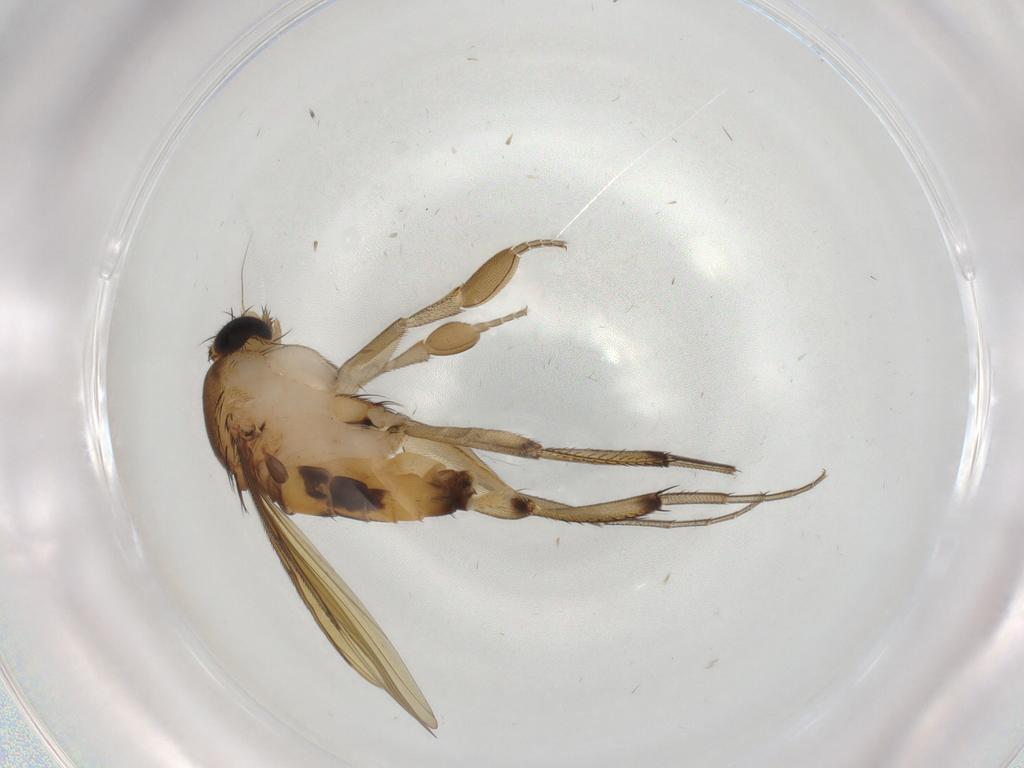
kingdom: Animalia
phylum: Arthropoda
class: Insecta
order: Diptera
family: Phoridae
